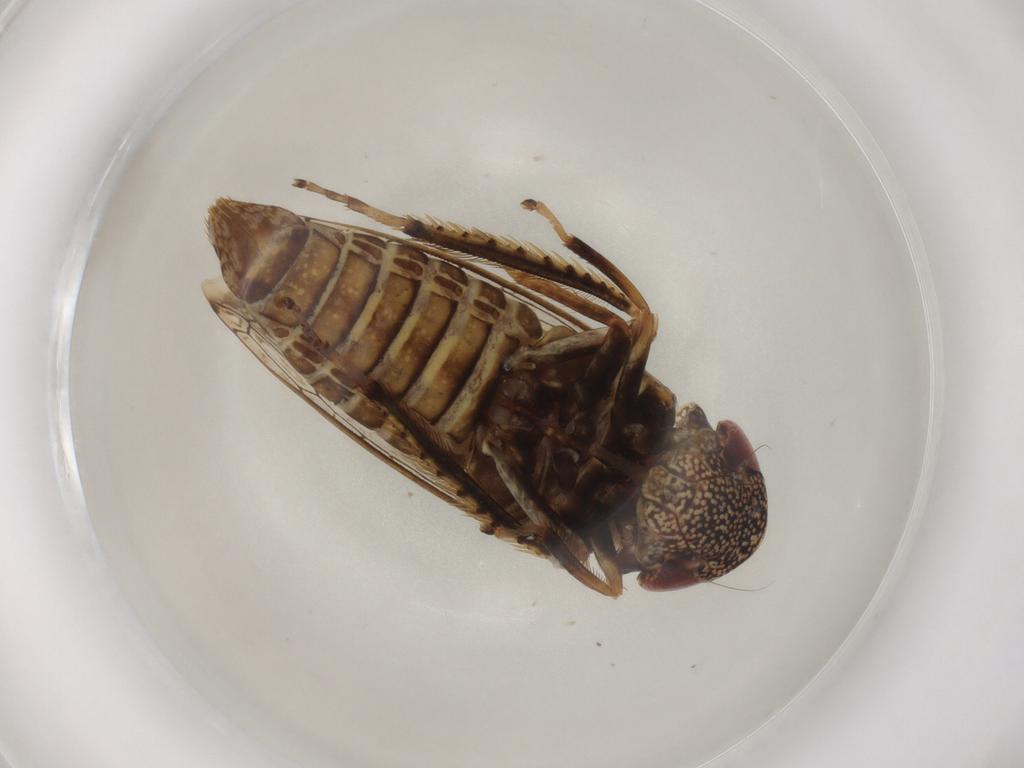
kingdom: Animalia
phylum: Arthropoda
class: Insecta
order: Hemiptera
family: Cicadellidae
